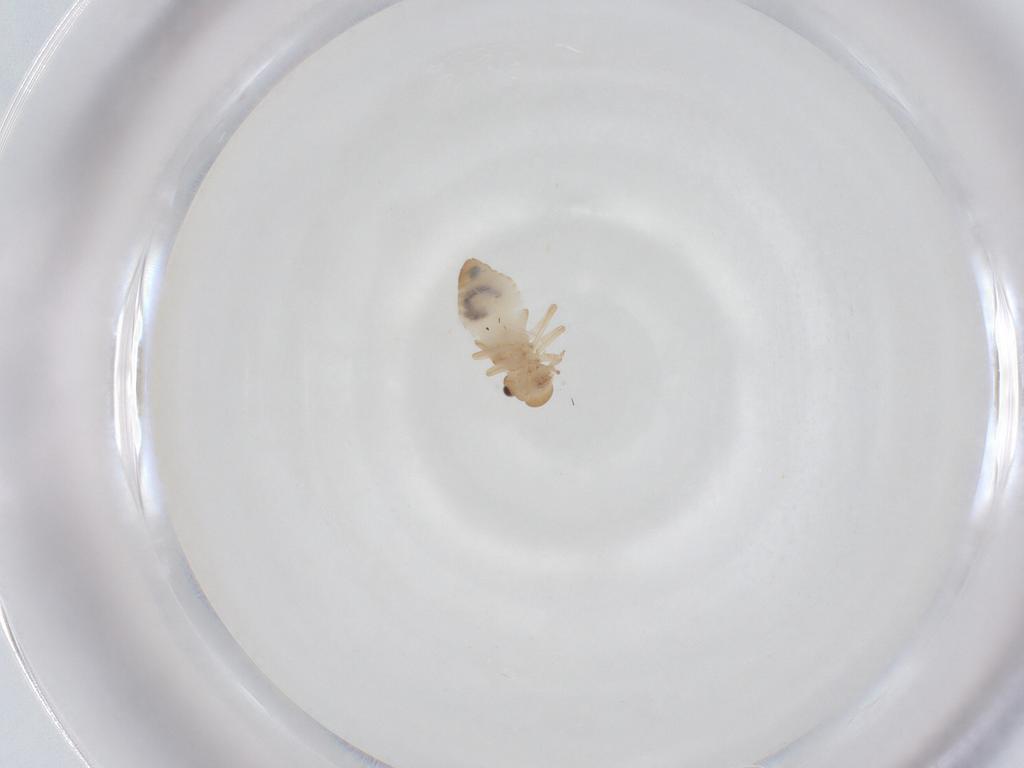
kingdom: Animalia
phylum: Arthropoda
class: Insecta
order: Psocodea
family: Philotarsidae
